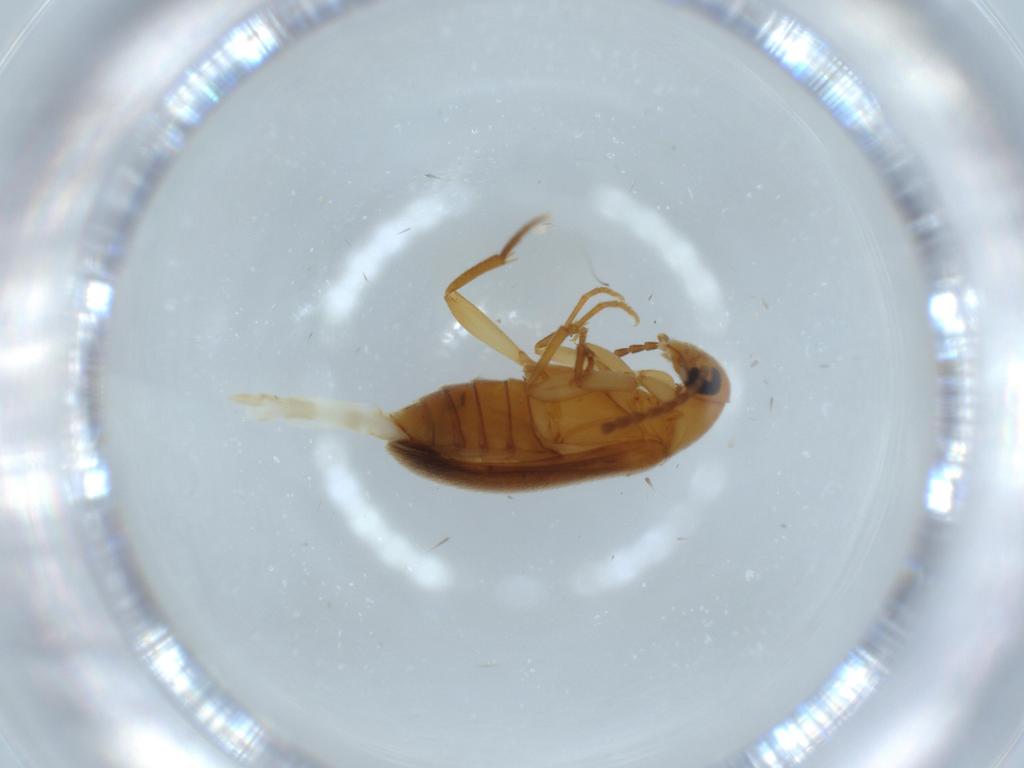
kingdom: Animalia
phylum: Arthropoda
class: Insecta
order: Coleoptera
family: Scraptiidae
